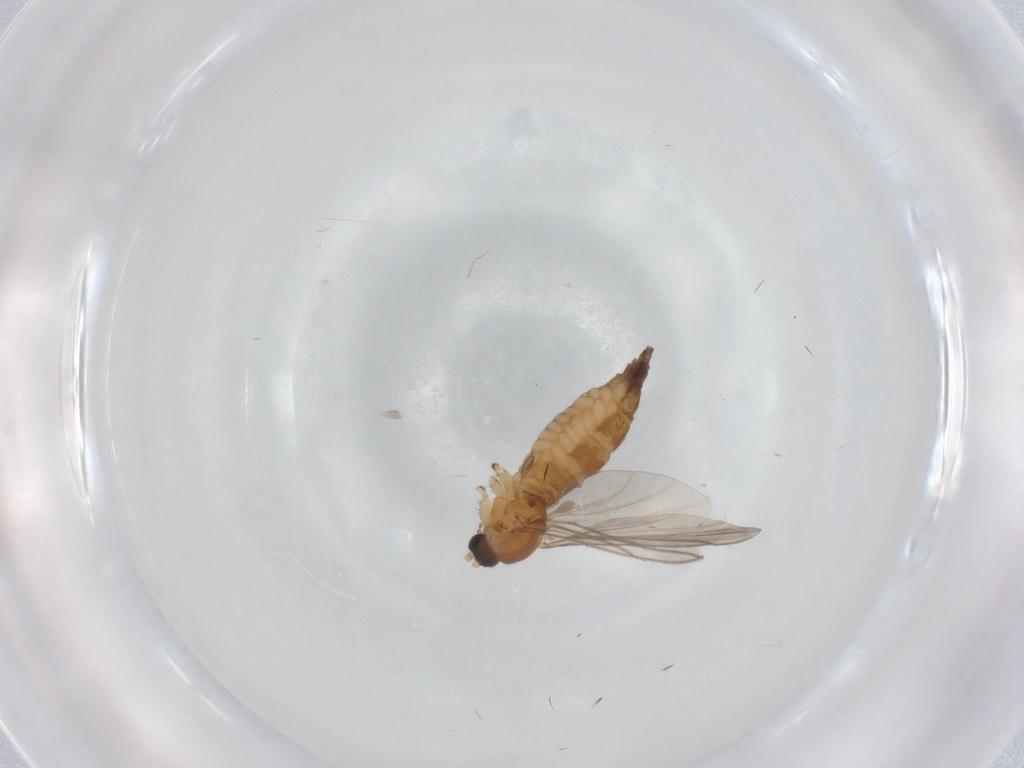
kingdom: Animalia
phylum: Arthropoda
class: Insecta
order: Diptera
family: Sciaridae
